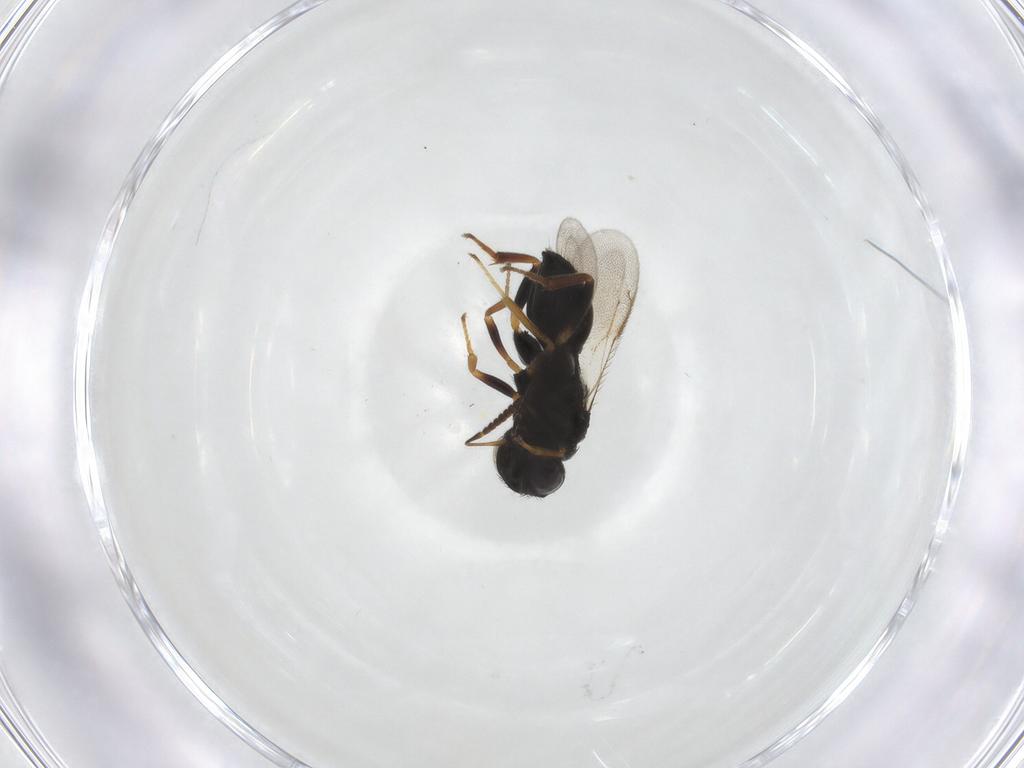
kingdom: Animalia
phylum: Arthropoda
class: Insecta
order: Hymenoptera
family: Pteromalidae
